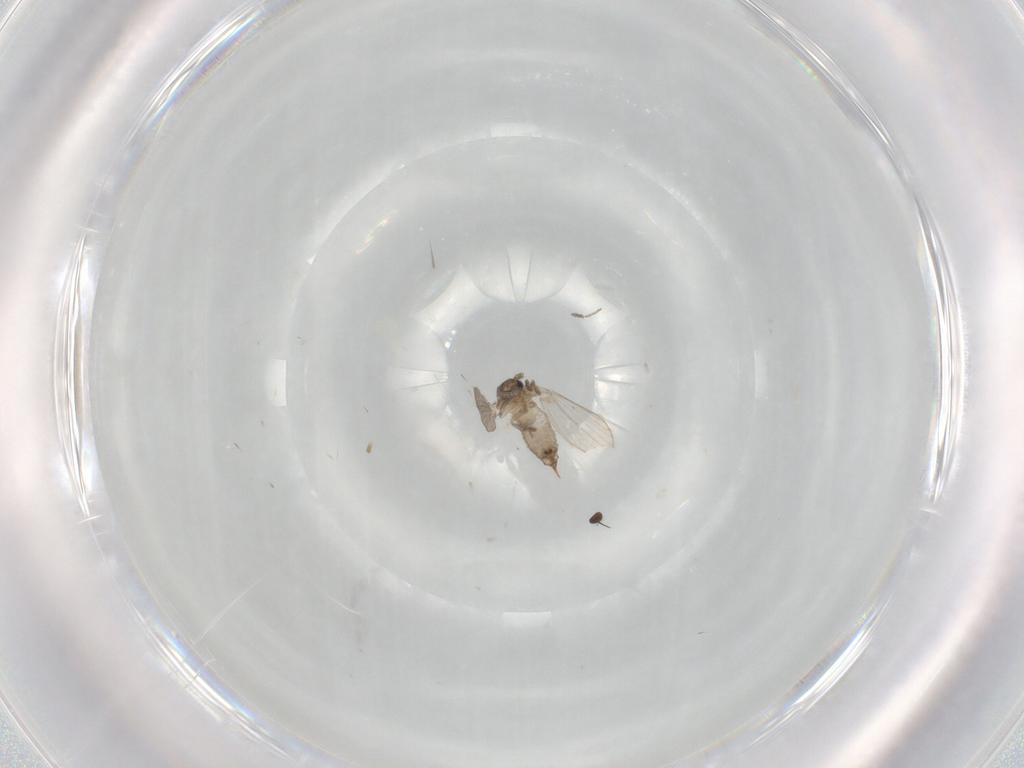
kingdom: Animalia
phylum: Arthropoda
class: Insecta
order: Diptera
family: Psychodidae
